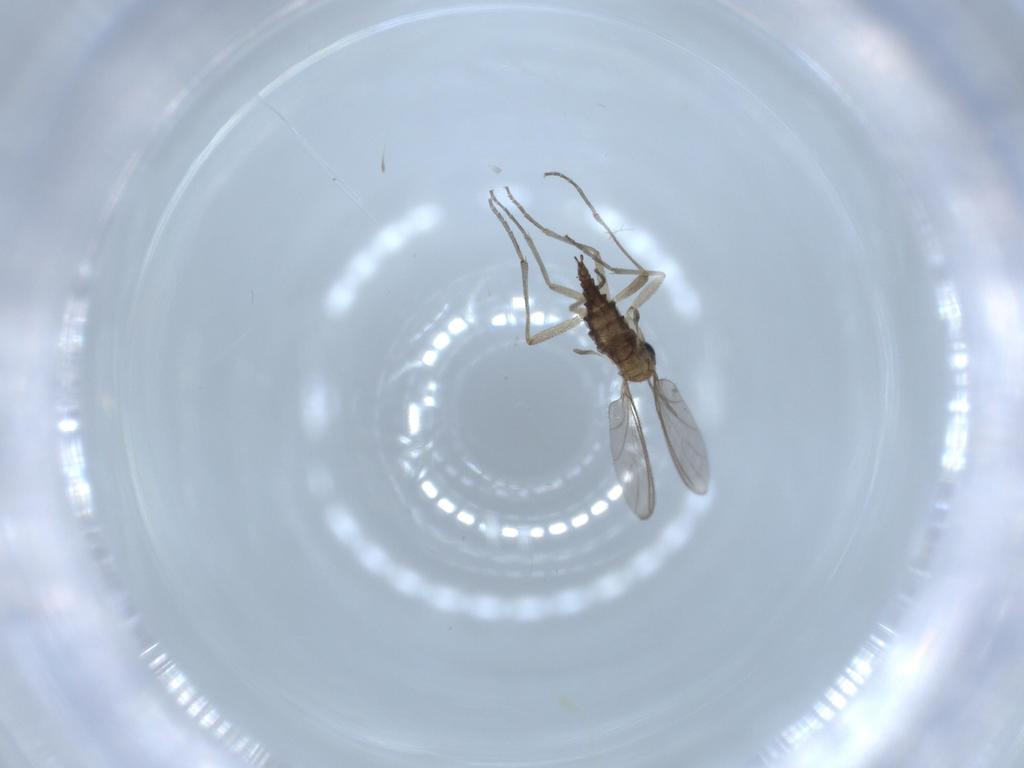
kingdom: Animalia
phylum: Arthropoda
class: Insecta
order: Diptera
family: Sciaridae
